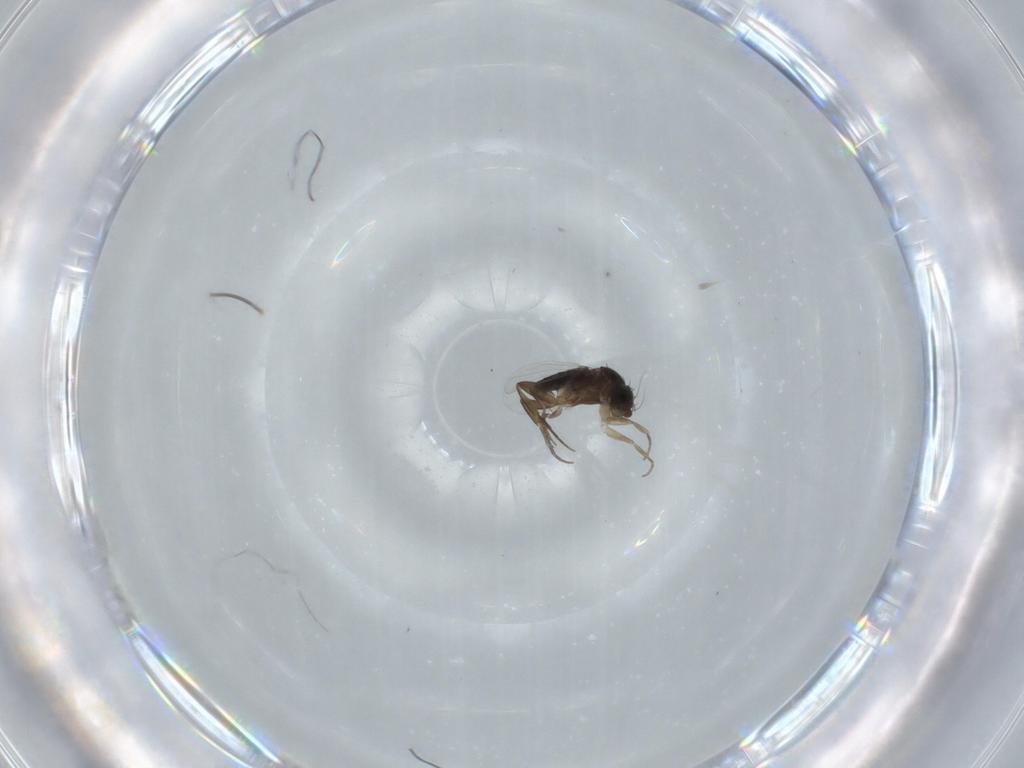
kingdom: Animalia
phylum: Arthropoda
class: Insecta
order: Diptera
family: Phoridae
